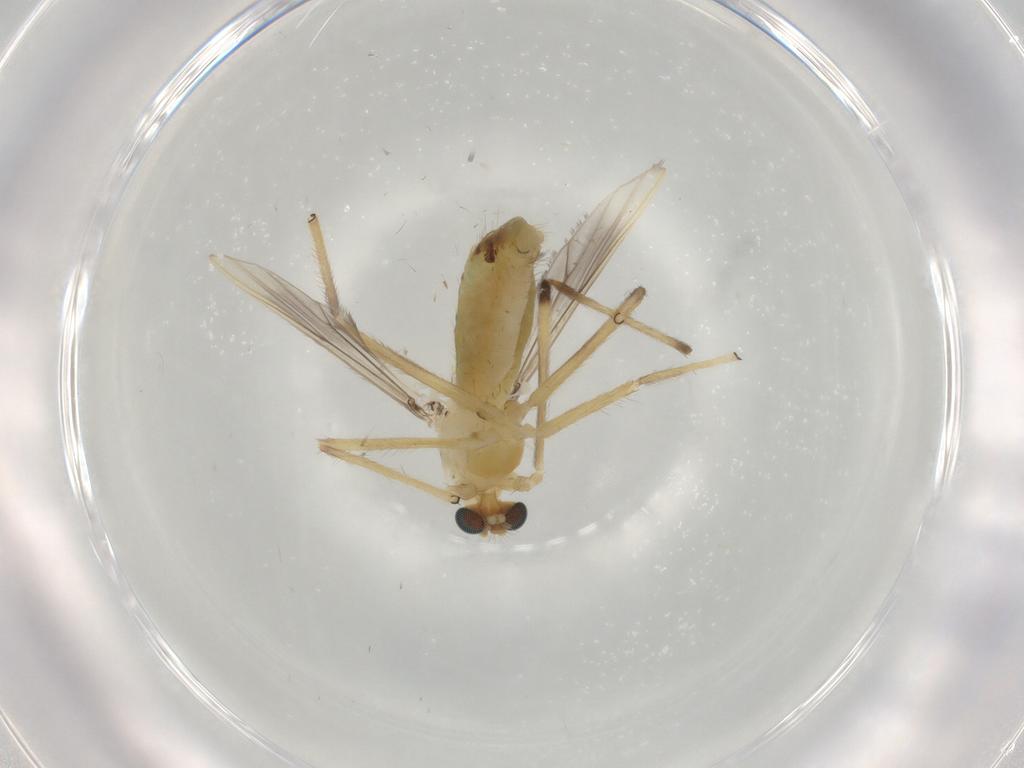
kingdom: Animalia
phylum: Arthropoda
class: Insecta
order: Diptera
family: Chironomidae
